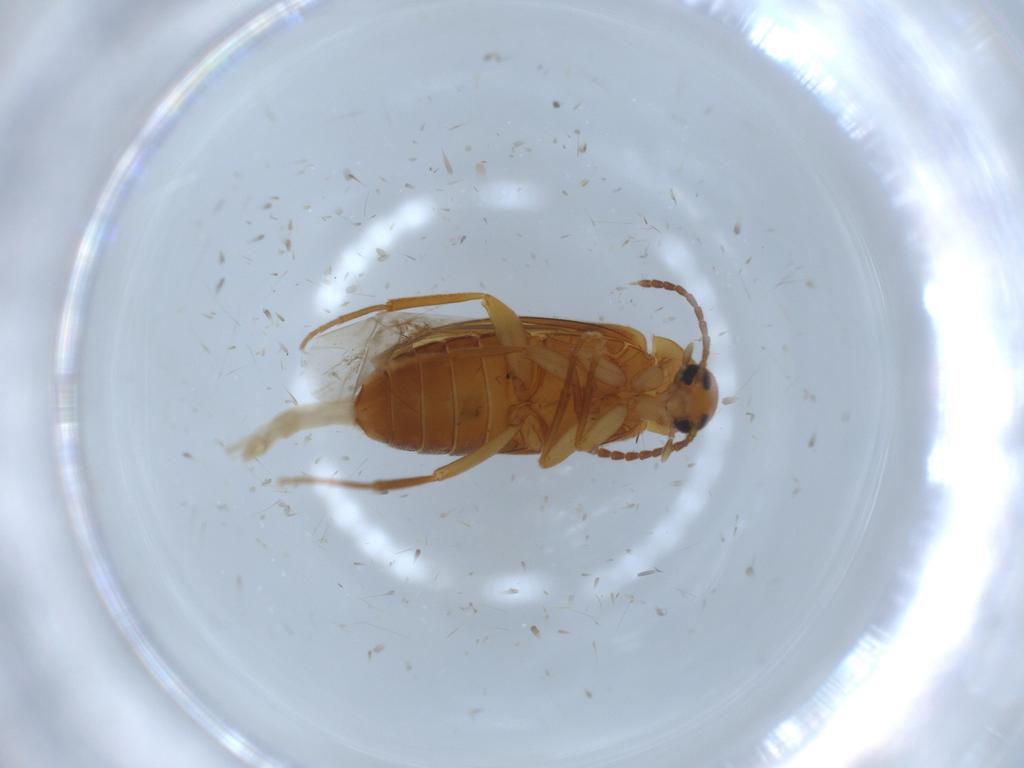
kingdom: Animalia
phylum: Arthropoda
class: Insecta
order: Coleoptera
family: Scraptiidae
